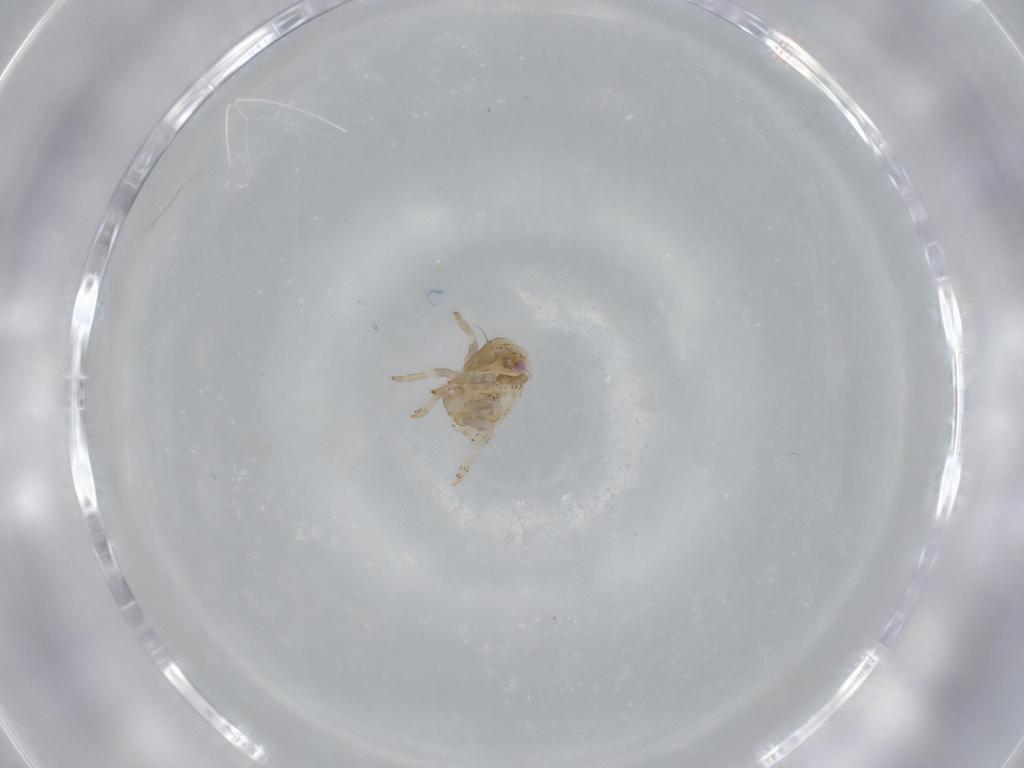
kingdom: Animalia
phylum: Arthropoda
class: Insecta
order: Hemiptera
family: Acanaloniidae
